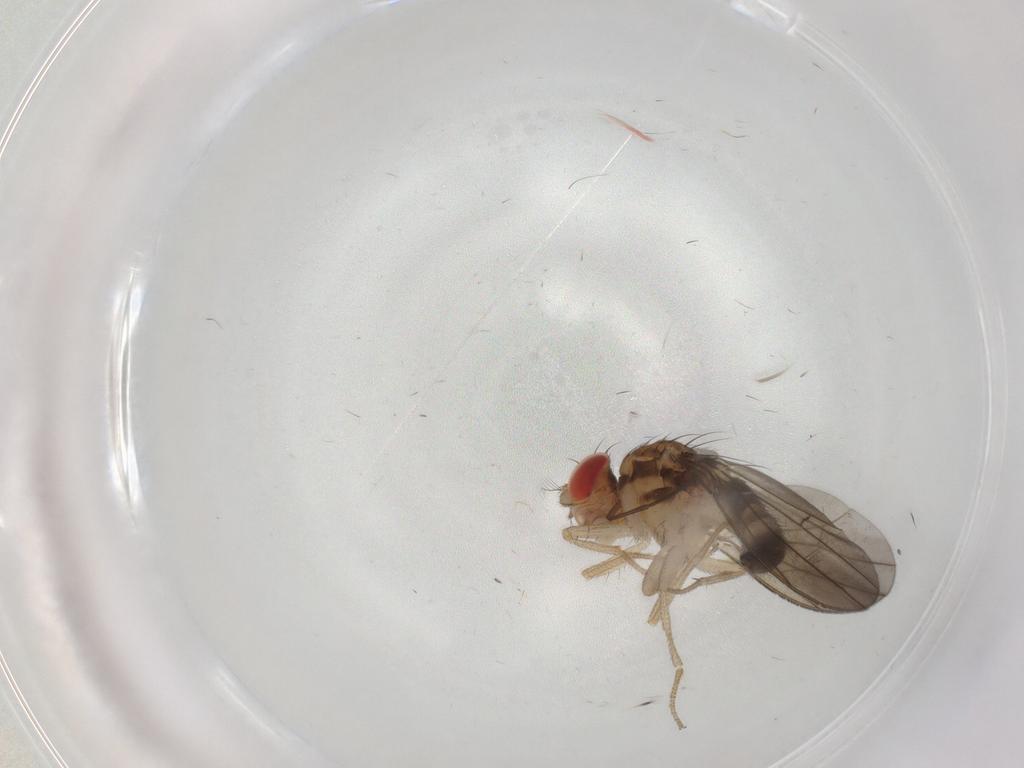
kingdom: Animalia
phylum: Arthropoda
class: Insecta
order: Diptera
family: Drosophilidae
